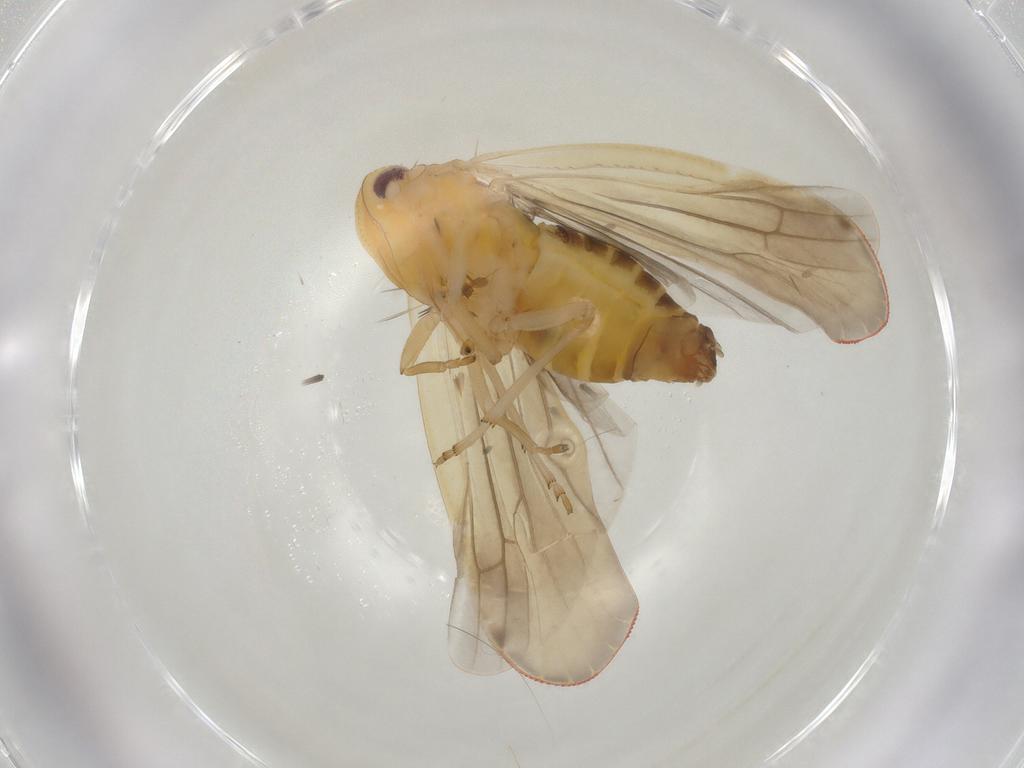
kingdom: Animalia
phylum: Arthropoda
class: Insecta
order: Hemiptera
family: Derbidae
